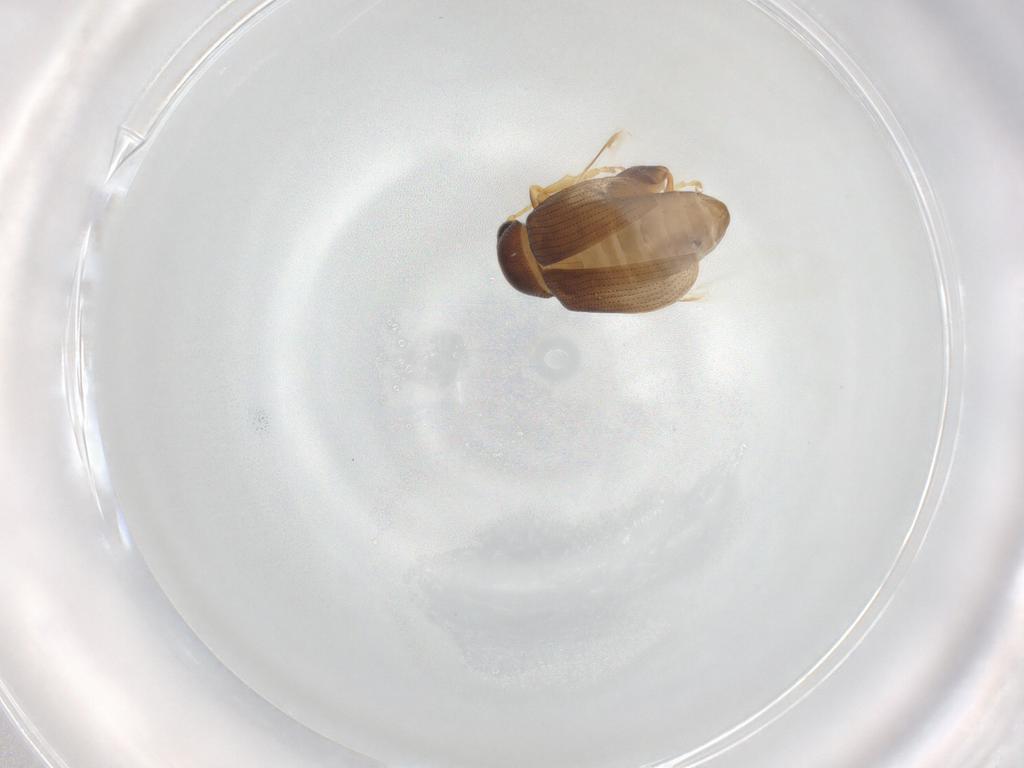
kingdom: Animalia
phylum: Arthropoda
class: Insecta
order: Coleoptera
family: Chrysomelidae
